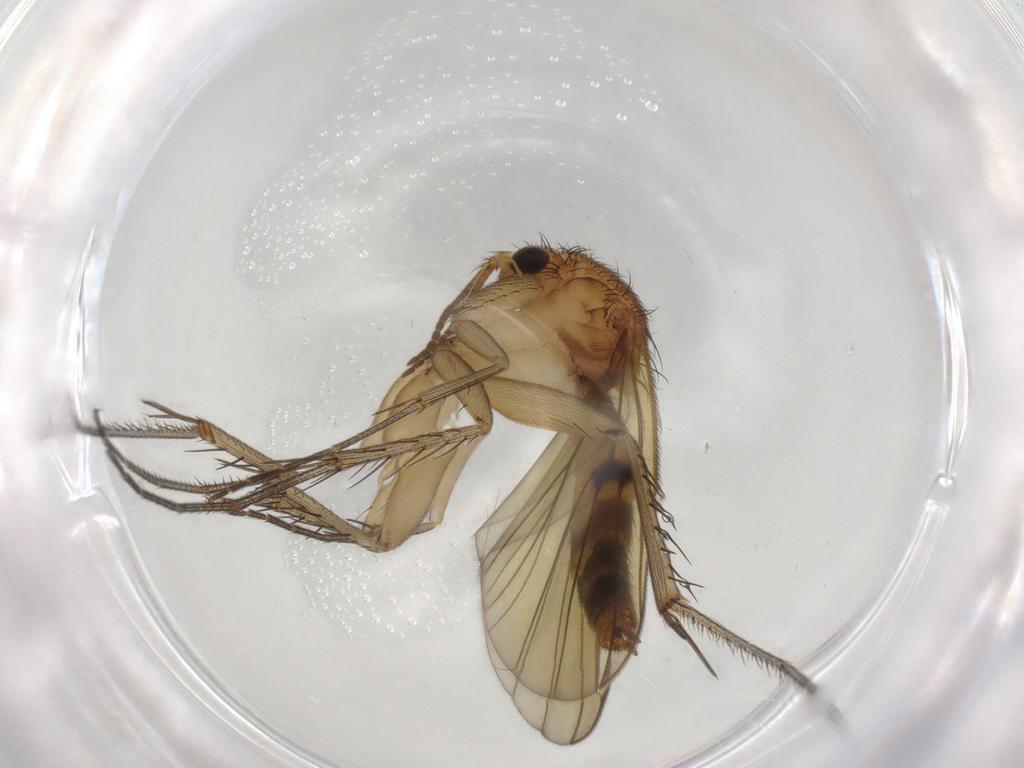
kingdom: Animalia
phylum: Arthropoda
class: Insecta
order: Diptera
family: Mycetophilidae
